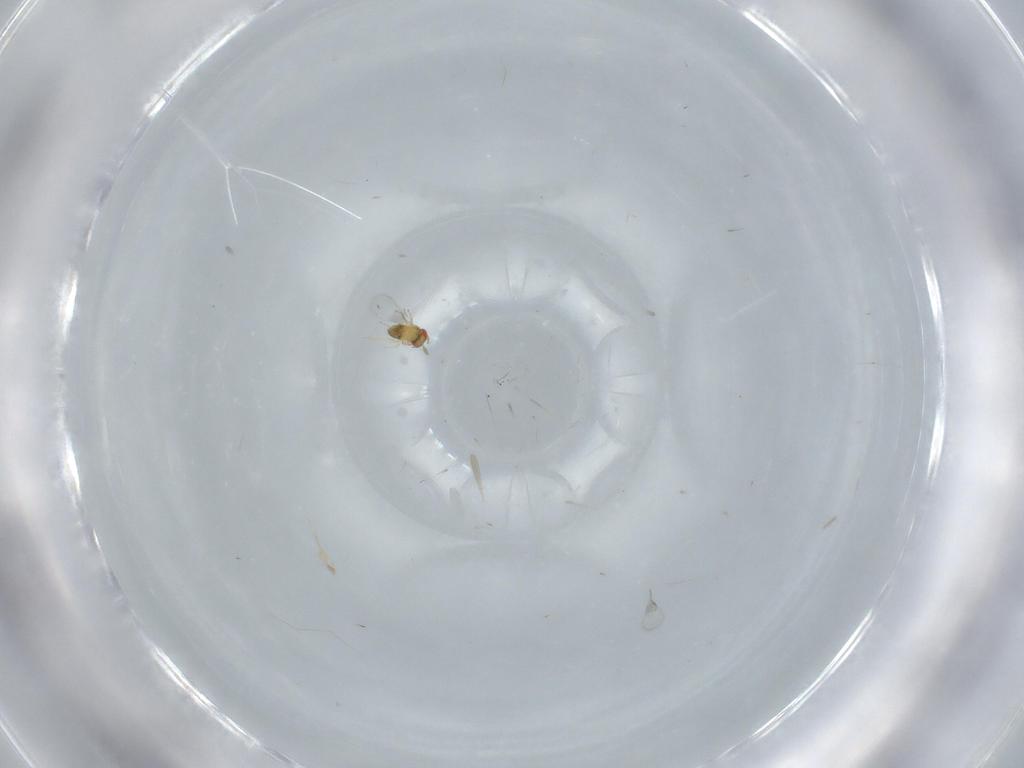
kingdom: Animalia
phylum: Arthropoda
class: Insecta
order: Hymenoptera
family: Trichogrammatidae
